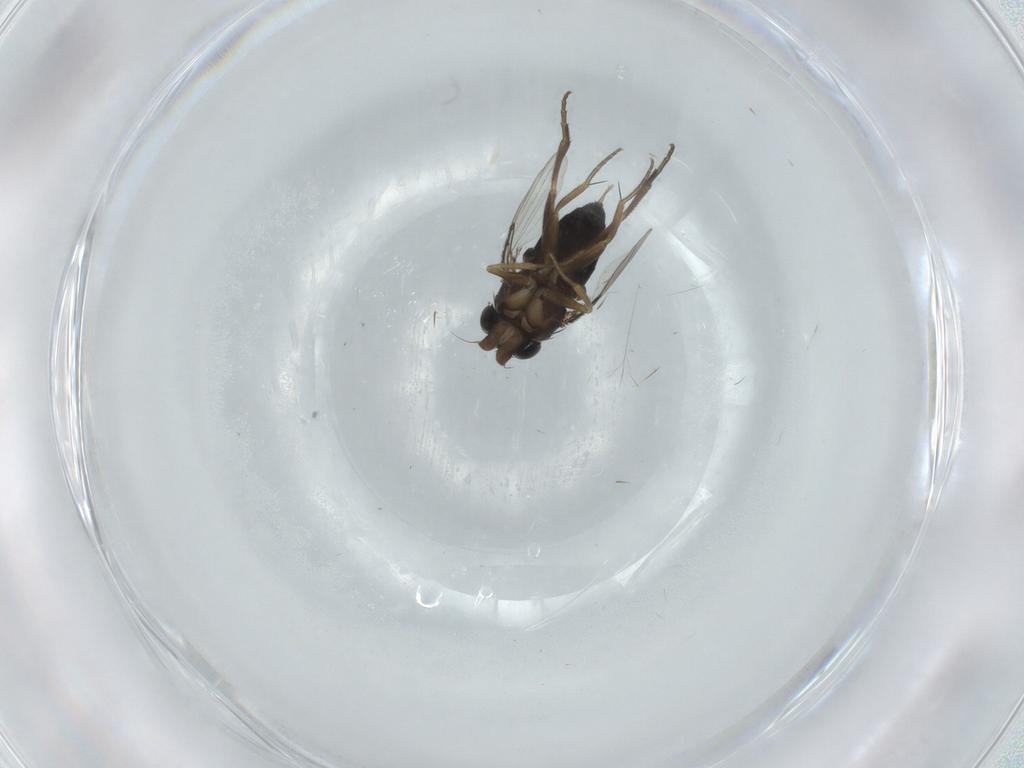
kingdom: Animalia
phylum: Arthropoda
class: Insecta
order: Diptera
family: Phoridae
